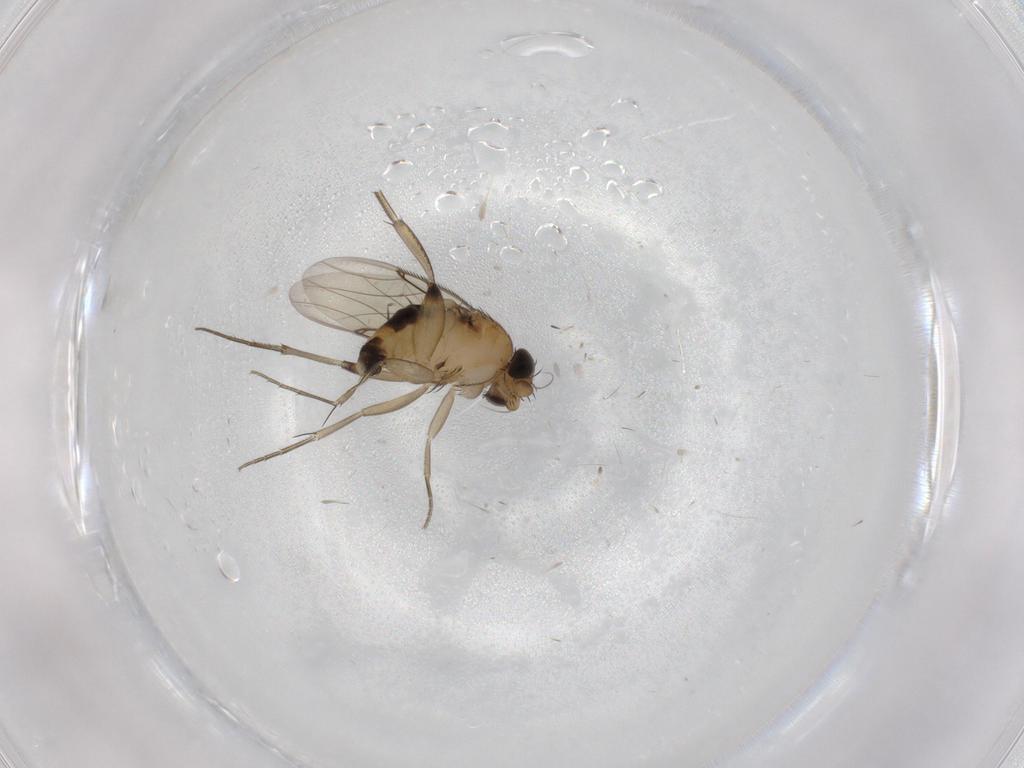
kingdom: Animalia
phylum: Arthropoda
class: Insecta
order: Diptera
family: Phoridae
